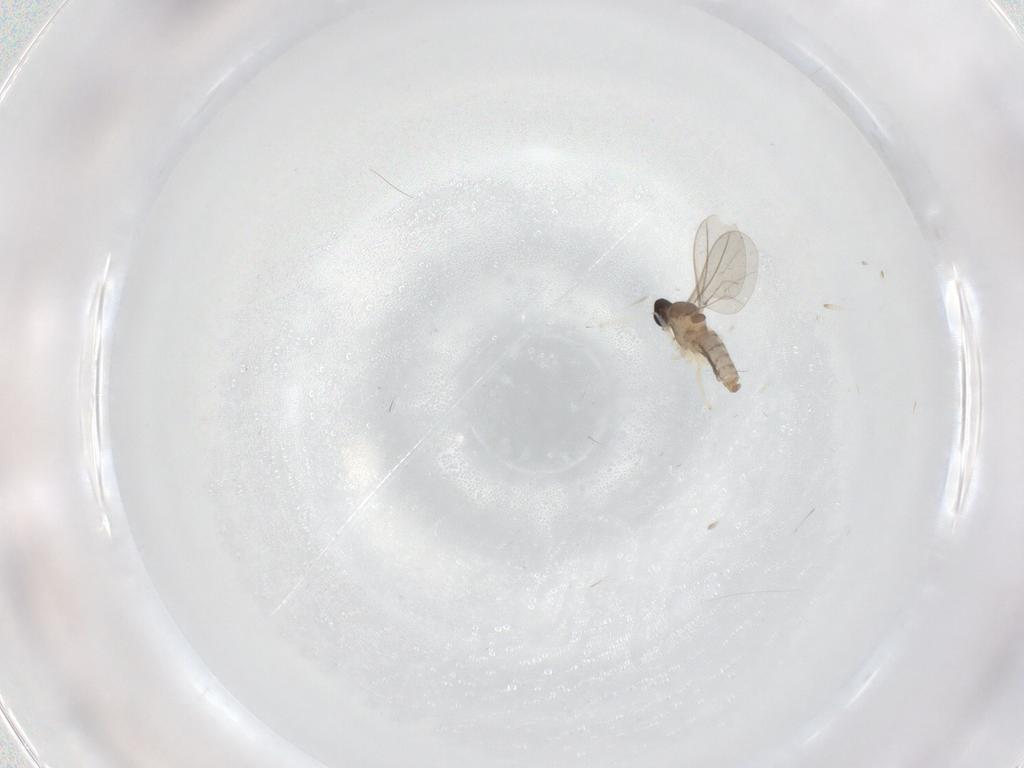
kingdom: Animalia
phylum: Arthropoda
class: Insecta
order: Diptera
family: Cecidomyiidae
